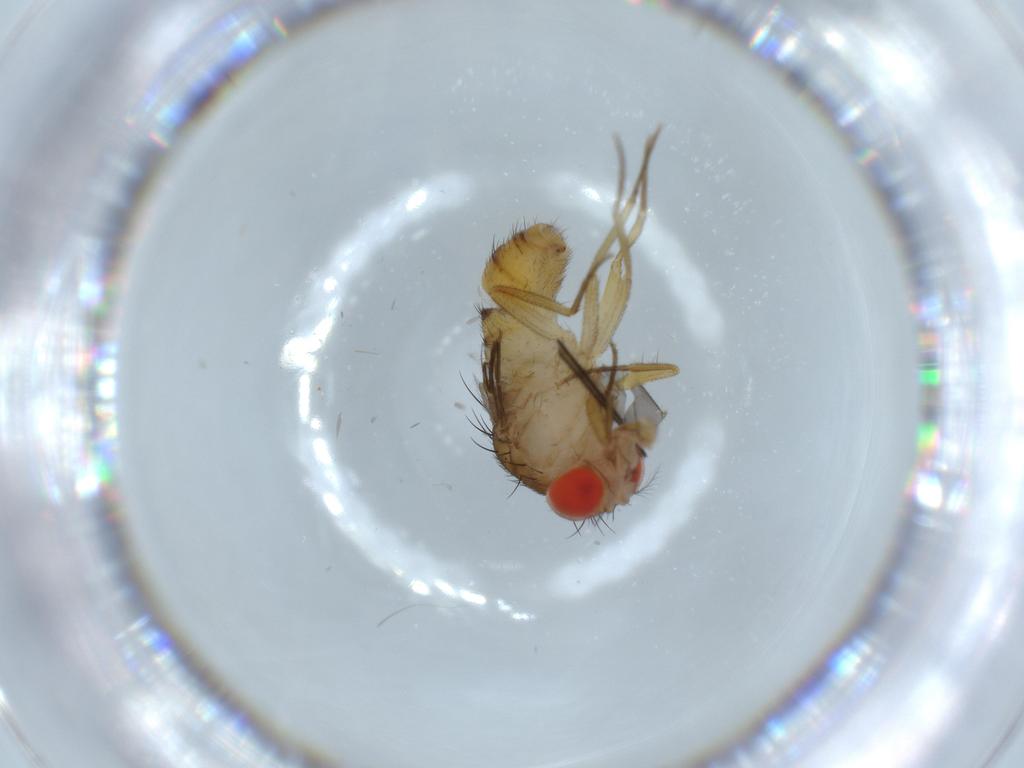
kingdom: Animalia
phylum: Arthropoda
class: Insecta
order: Diptera
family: Drosophilidae
